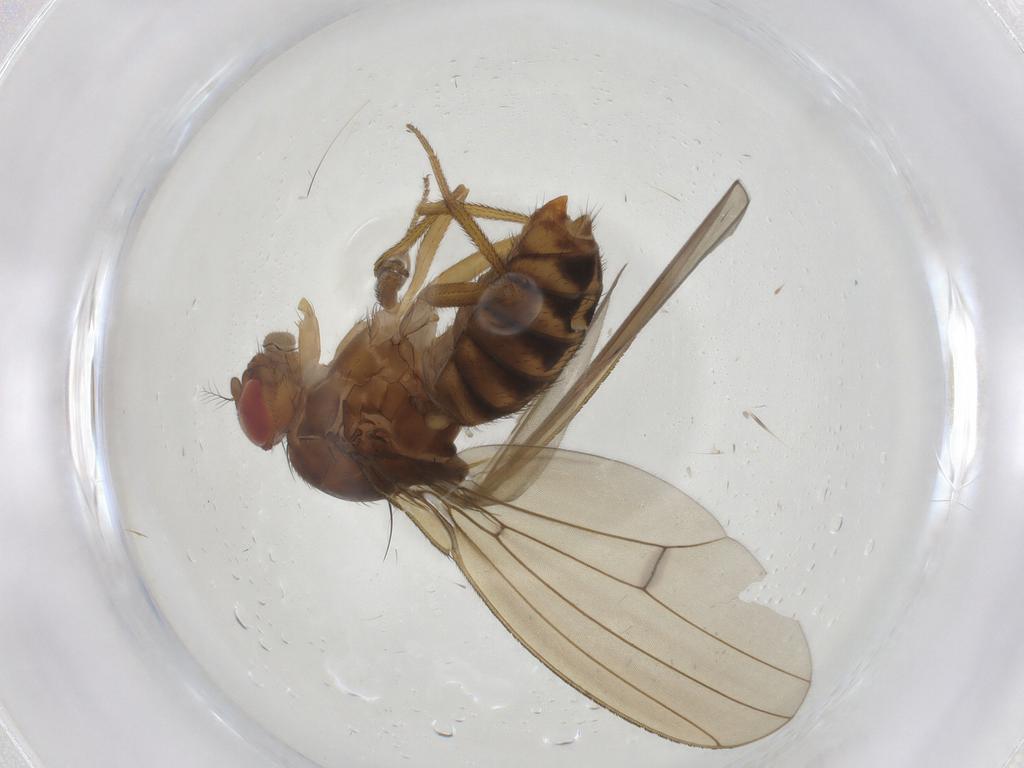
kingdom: Animalia
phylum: Arthropoda
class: Insecta
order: Diptera
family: Drosophilidae
